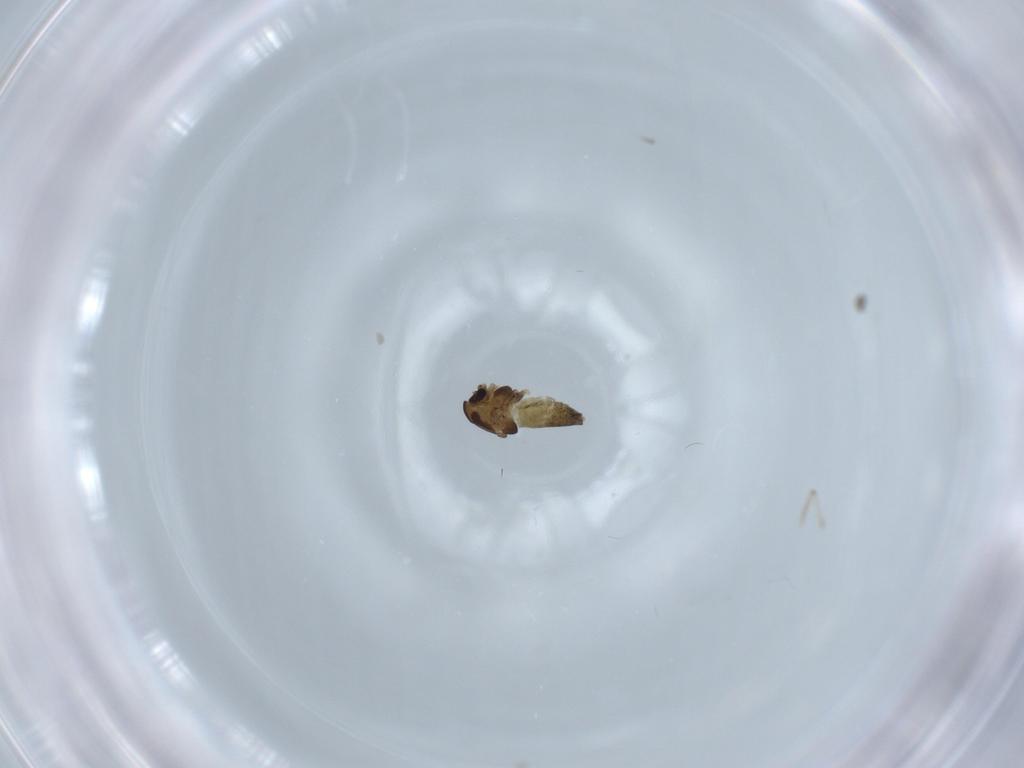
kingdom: Animalia
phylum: Arthropoda
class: Insecta
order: Diptera
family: Chironomidae
